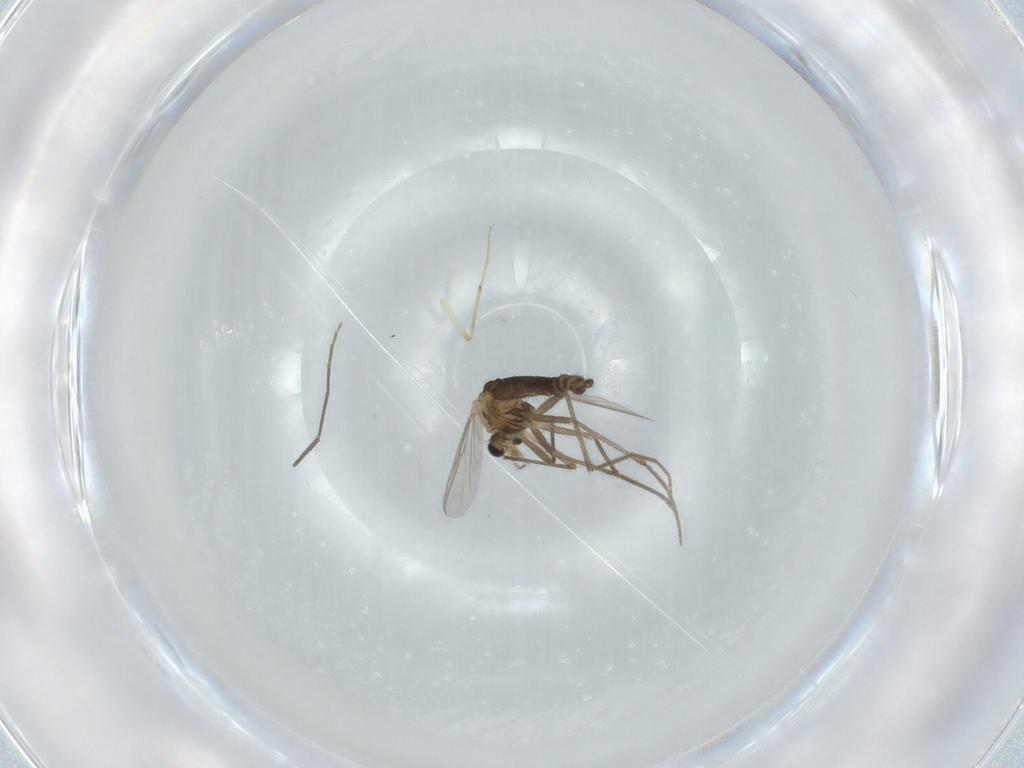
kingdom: Animalia
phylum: Arthropoda
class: Insecta
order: Diptera
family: Chironomidae
